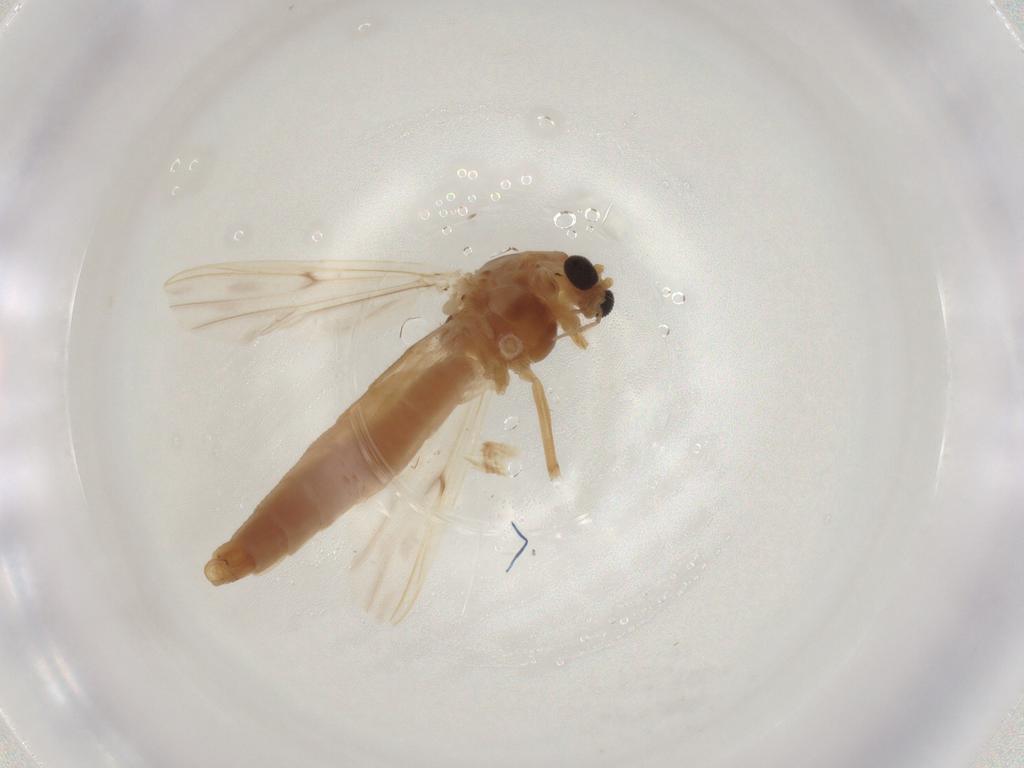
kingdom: Animalia
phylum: Arthropoda
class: Insecta
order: Diptera
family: Chironomidae
